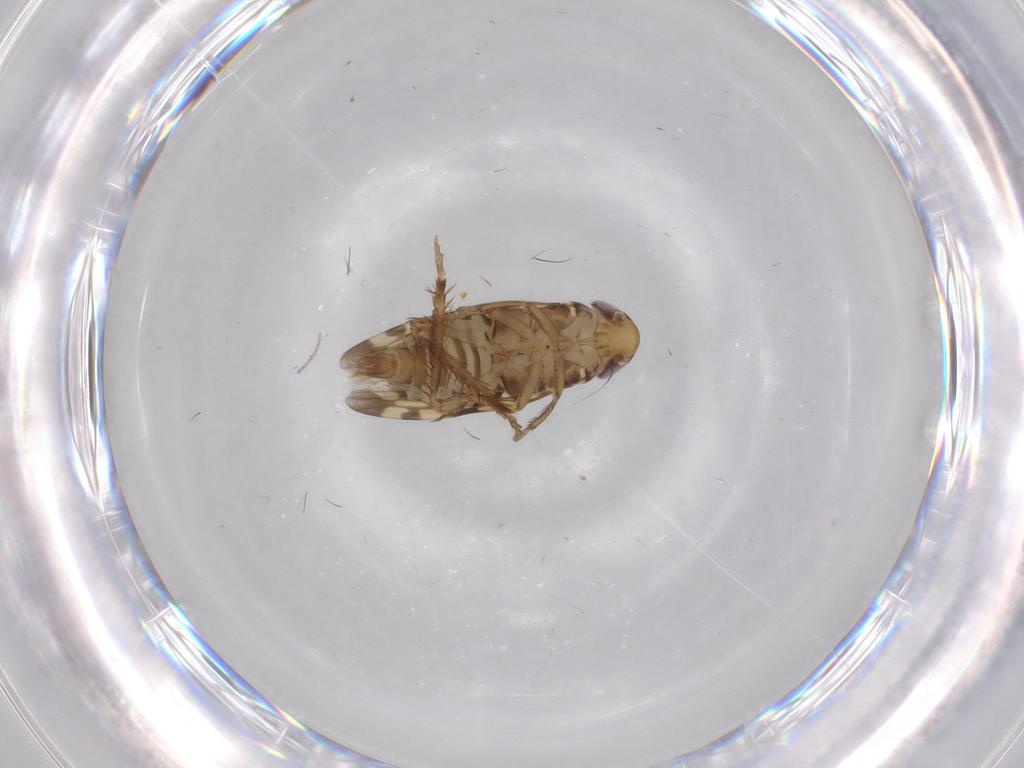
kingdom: Animalia
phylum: Arthropoda
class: Insecta
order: Hemiptera
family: Cicadellidae
